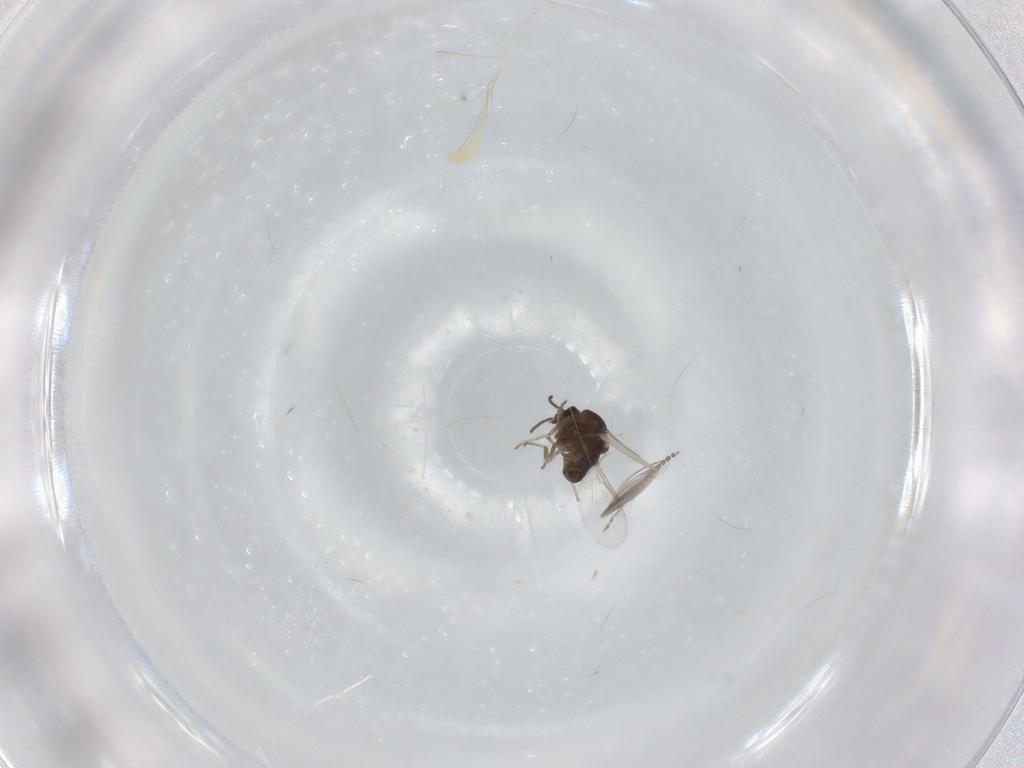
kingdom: Animalia
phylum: Arthropoda
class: Insecta
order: Diptera
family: Ceratopogonidae
